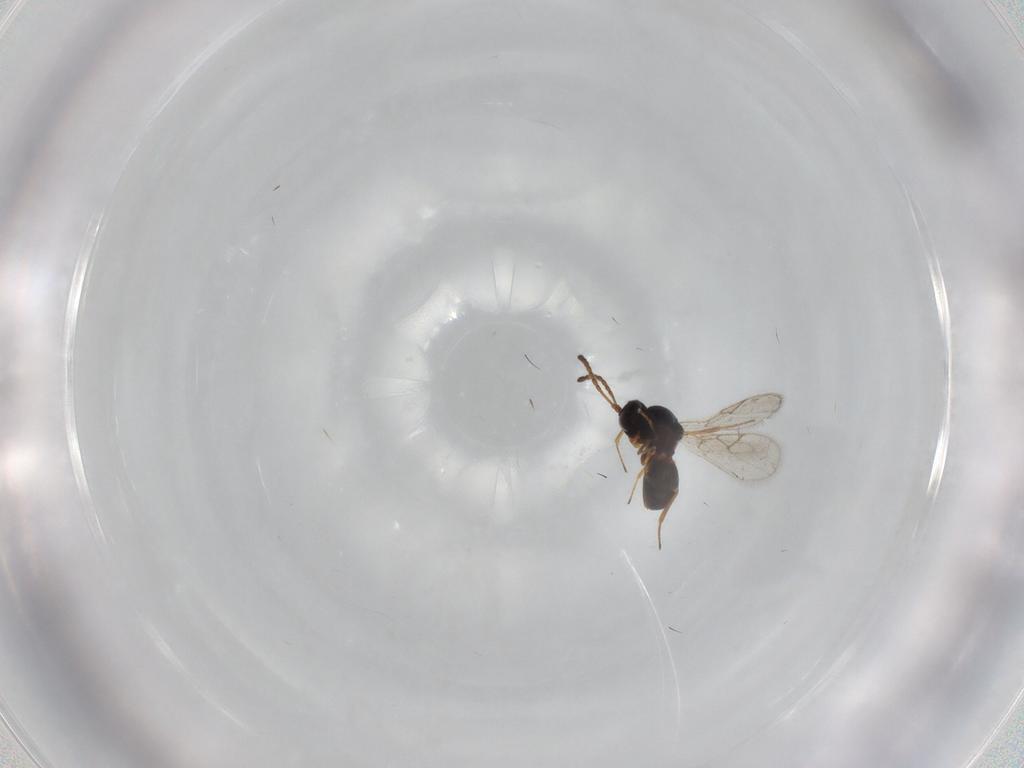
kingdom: Animalia
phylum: Arthropoda
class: Insecta
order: Hymenoptera
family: Figitidae
